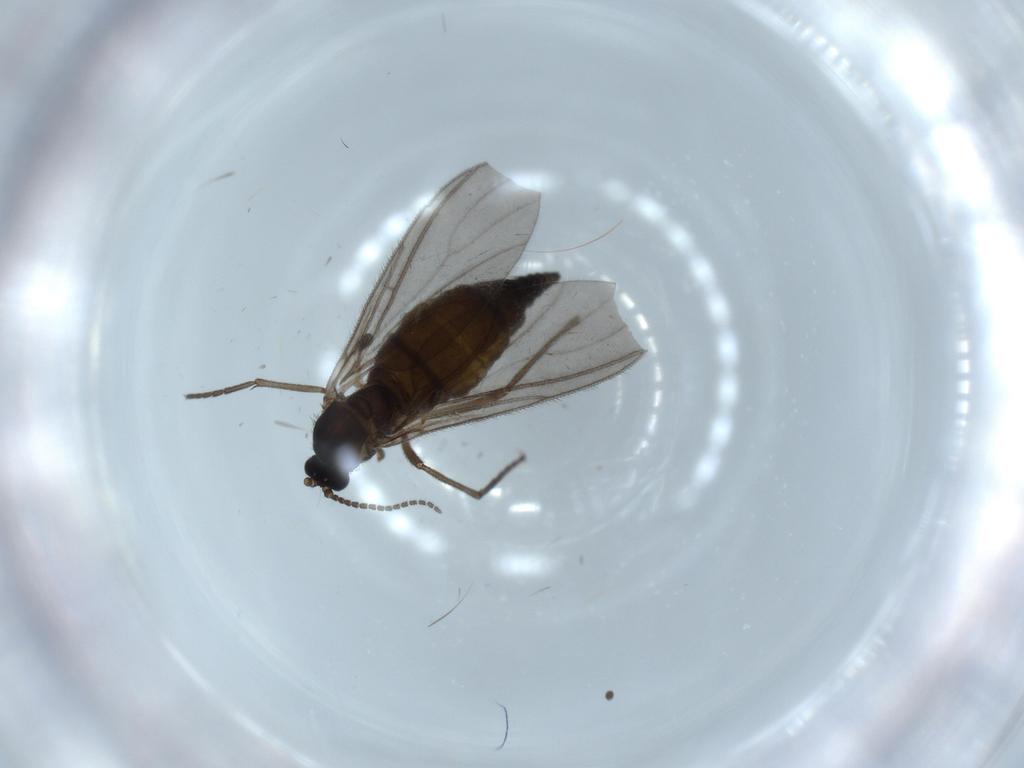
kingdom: Animalia
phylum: Arthropoda
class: Insecta
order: Diptera
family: Sciaridae
